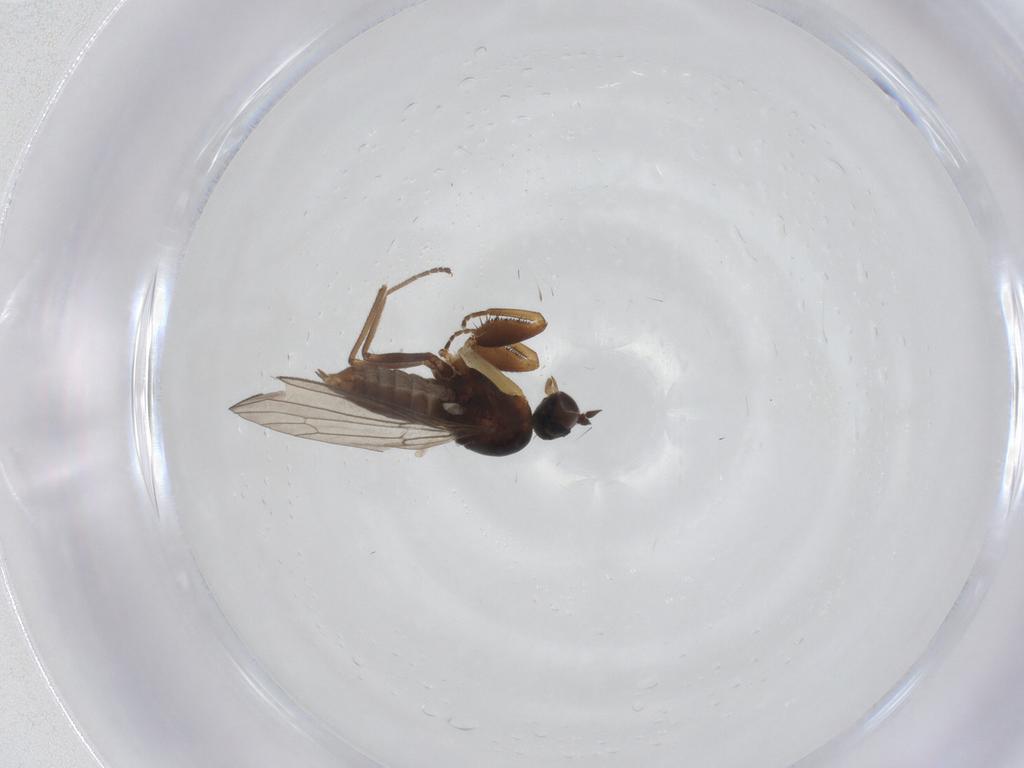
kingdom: Animalia
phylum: Arthropoda
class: Insecta
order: Diptera
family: Empididae
